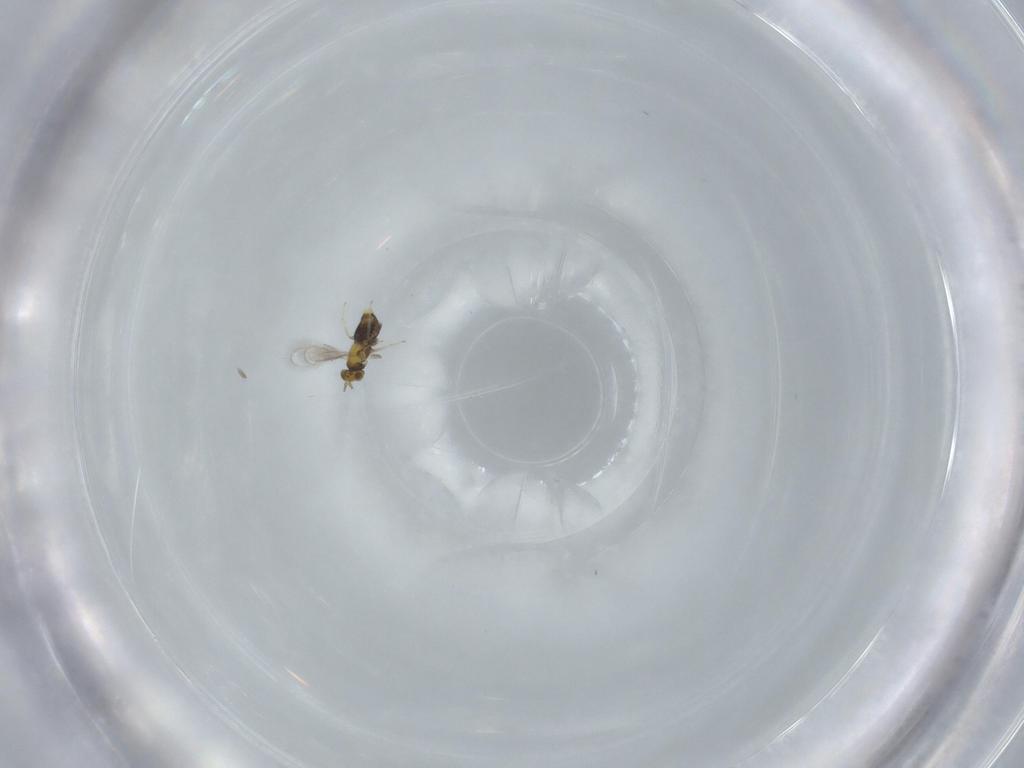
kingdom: Animalia
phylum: Arthropoda
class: Insecta
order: Hymenoptera
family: Aphelinidae
